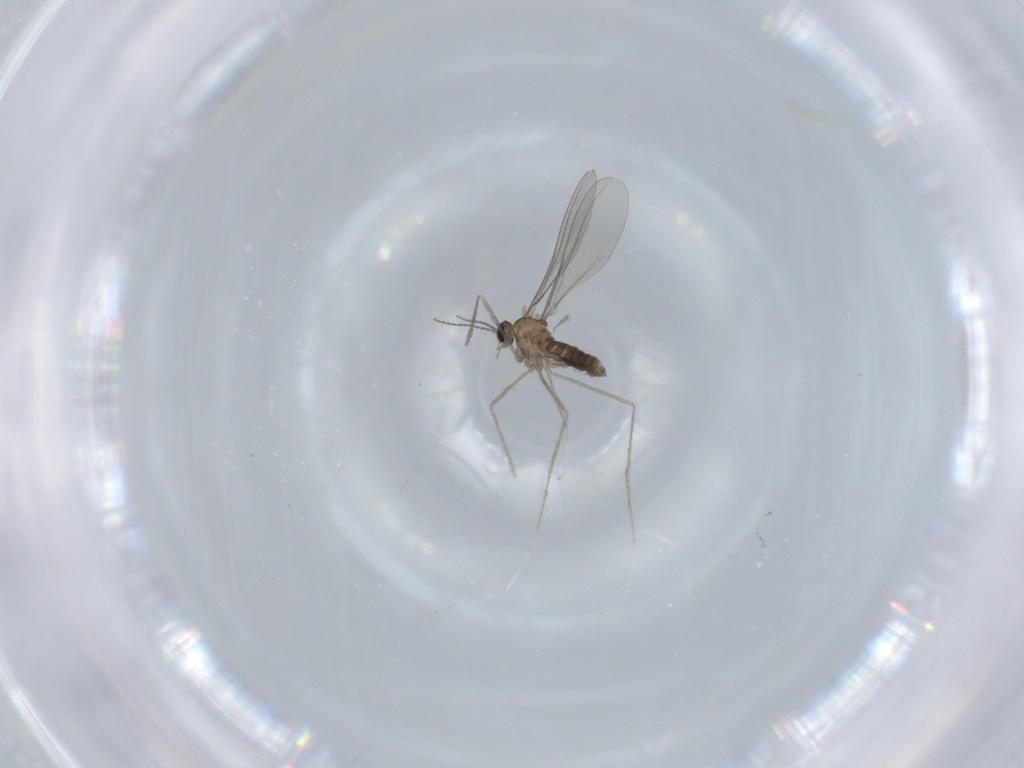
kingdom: Animalia
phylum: Arthropoda
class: Insecta
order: Diptera
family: Cecidomyiidae
